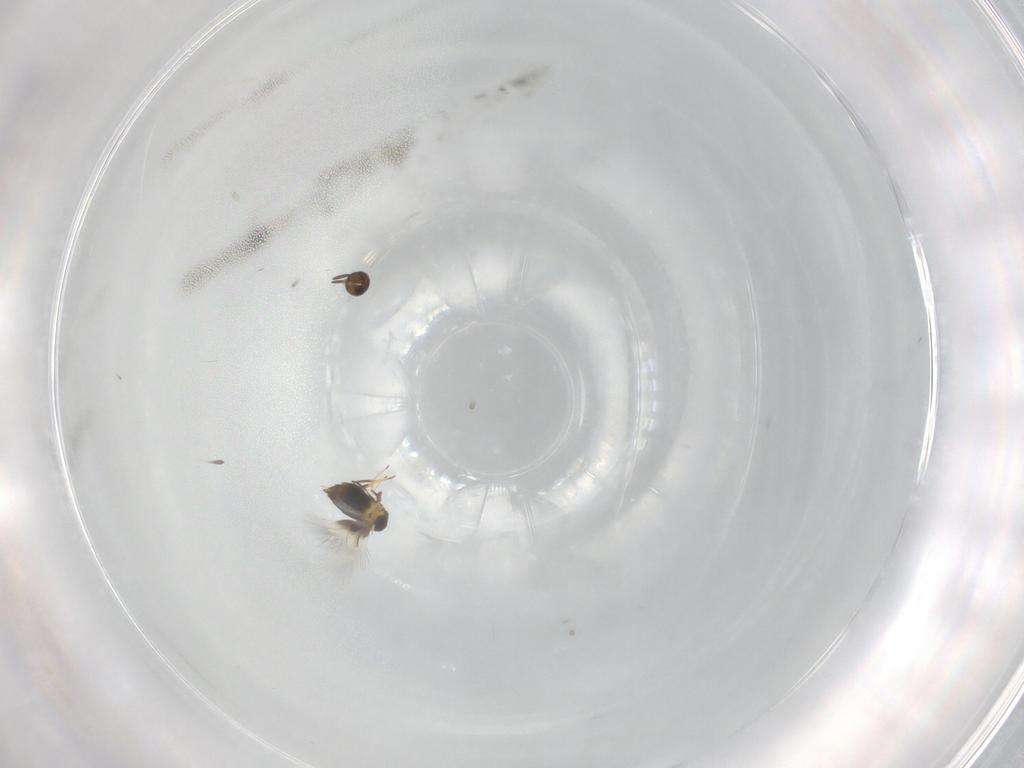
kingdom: Animalia
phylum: Arthropoda
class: Insecta
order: Hymenoptera
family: Signiphoridae
